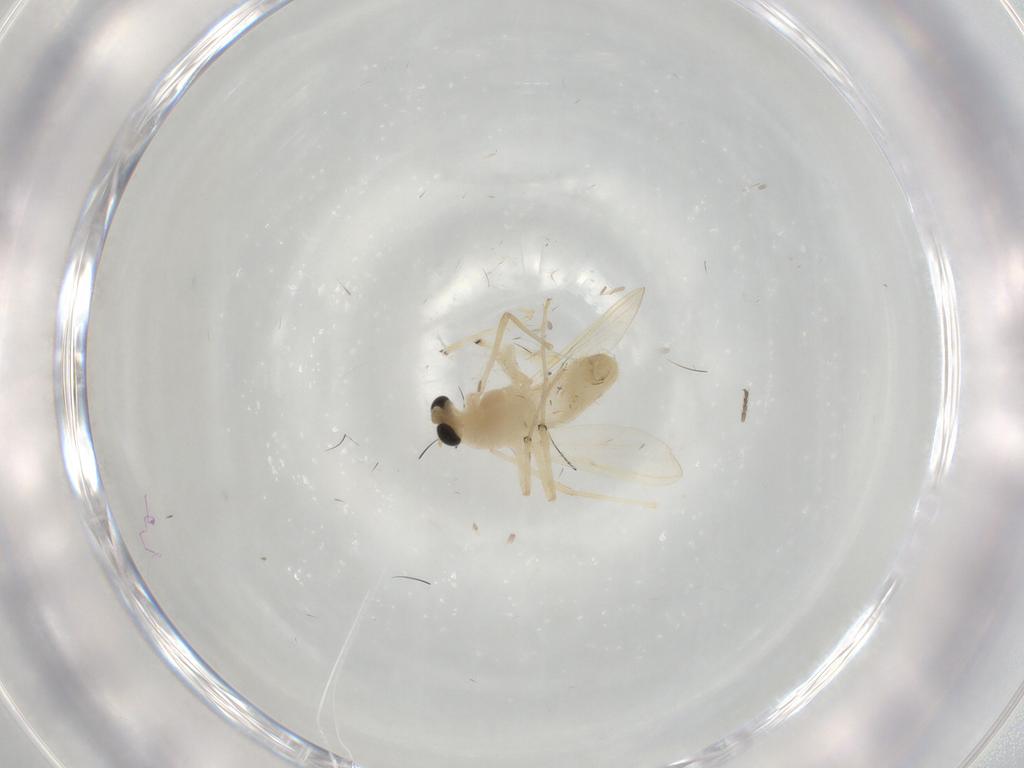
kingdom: Animalia
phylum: Arthropoda
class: Insecta
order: Diptera
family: Chironomidae
